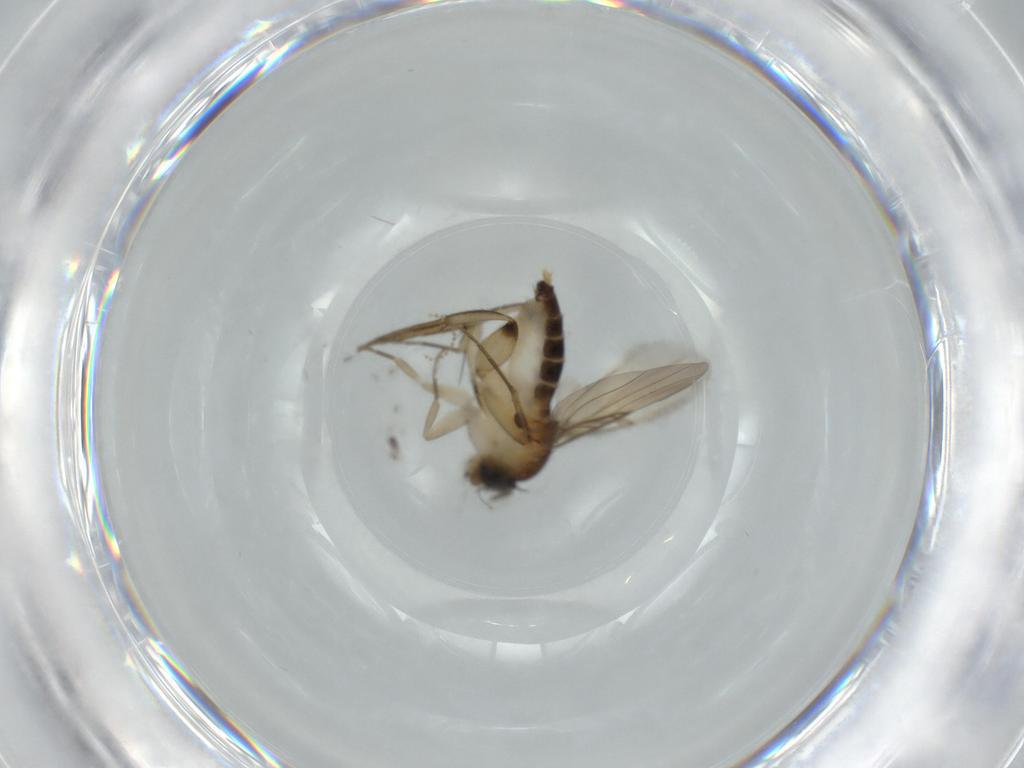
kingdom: Animalia
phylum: Arthropoda
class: Insecta
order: Diptera
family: Phoridae
